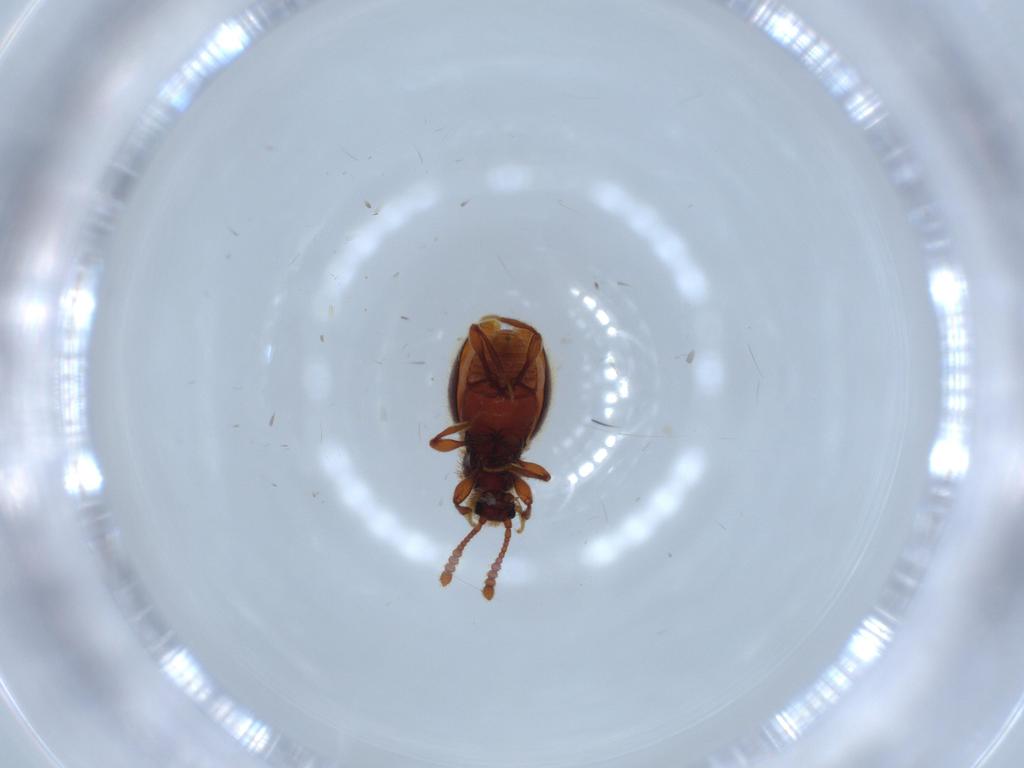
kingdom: Animalia
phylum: Arthropoda
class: Insecta
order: Coleoptera
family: Staphylinidae
